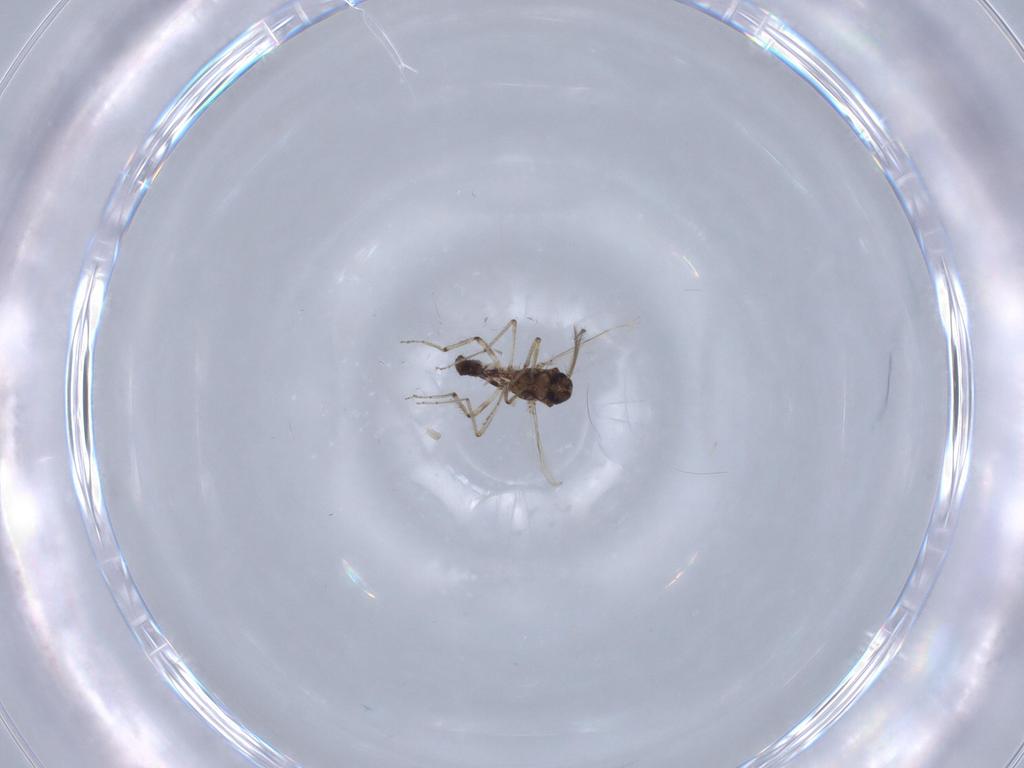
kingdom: Animalia
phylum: Arthropoda
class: Insecta
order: Diptera
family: Ceratopogonidae
